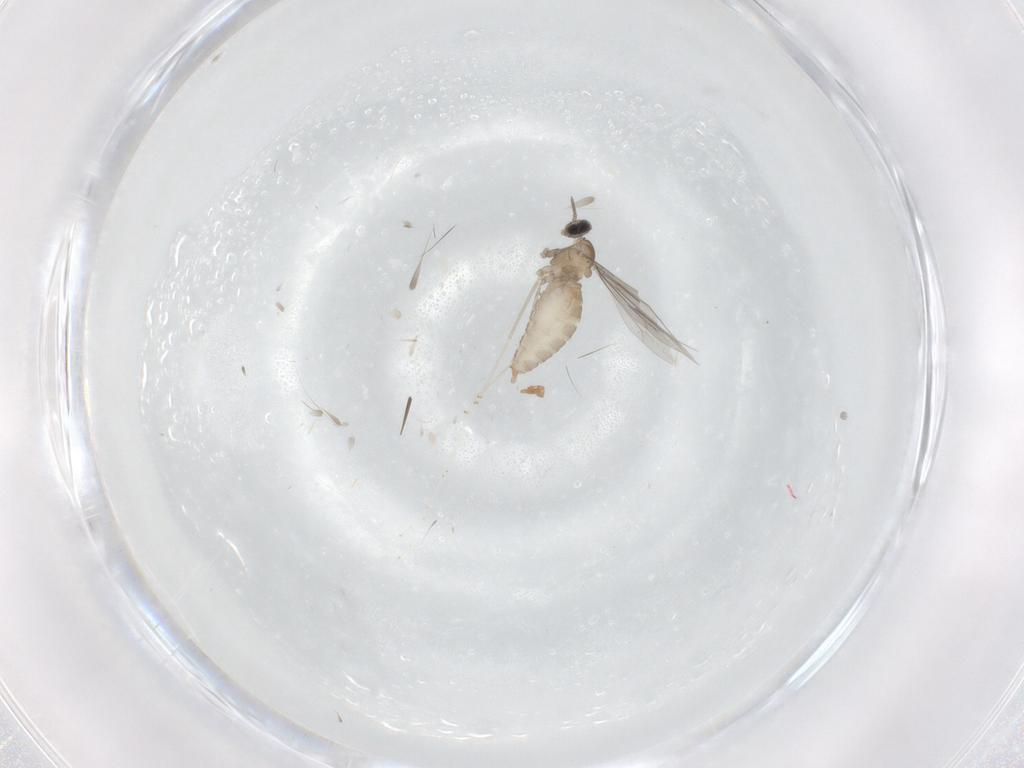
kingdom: Animalia
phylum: Arthropoda
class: Insecta
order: Diptera
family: Cecidomyiidae
